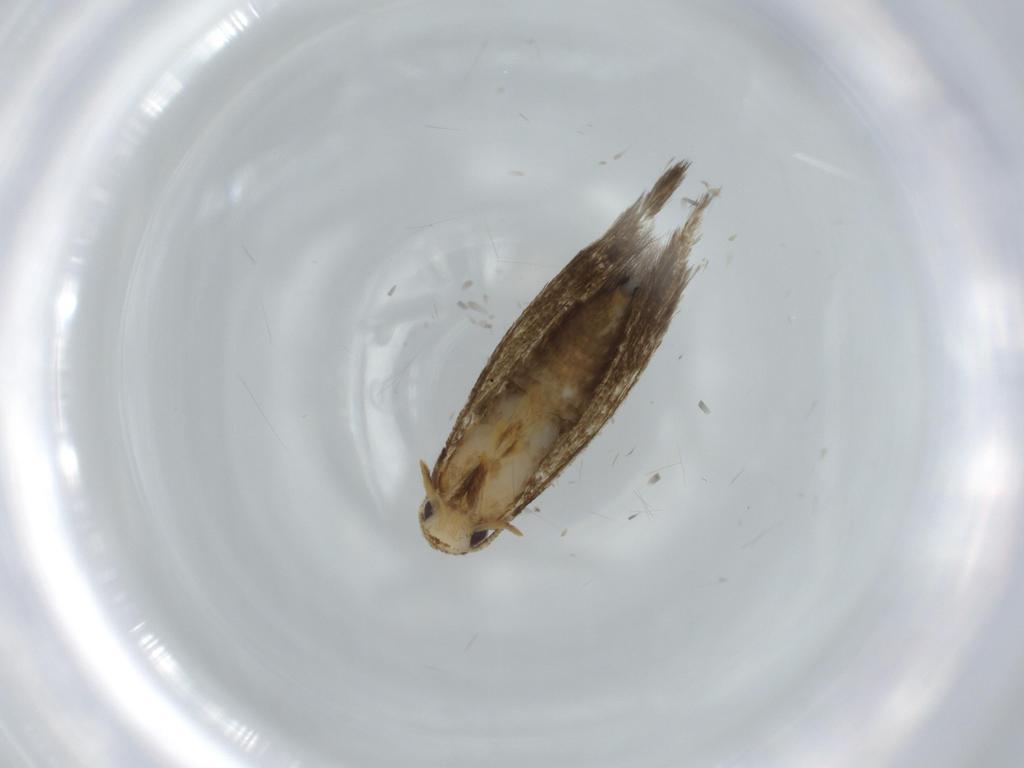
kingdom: Animalia
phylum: Arthropoda
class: Insecta
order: Lepidoptera
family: Tineidae
